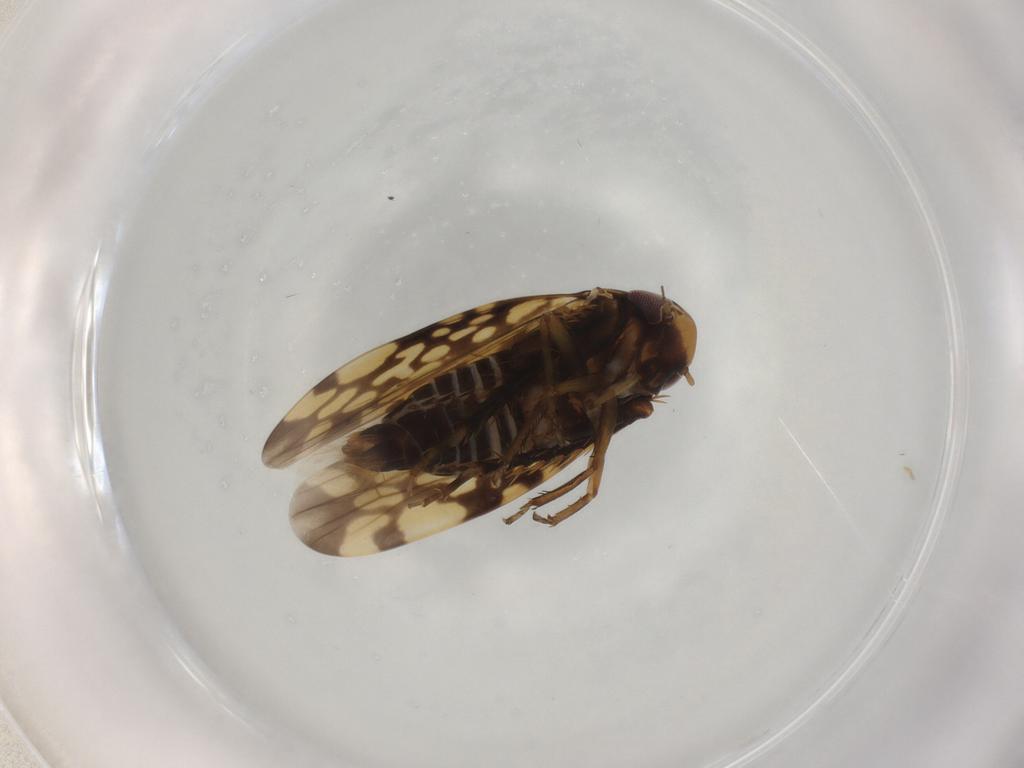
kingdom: Animalia
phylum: Arthropoda
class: Insecta
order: Hemiptera
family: Cicadellidae
